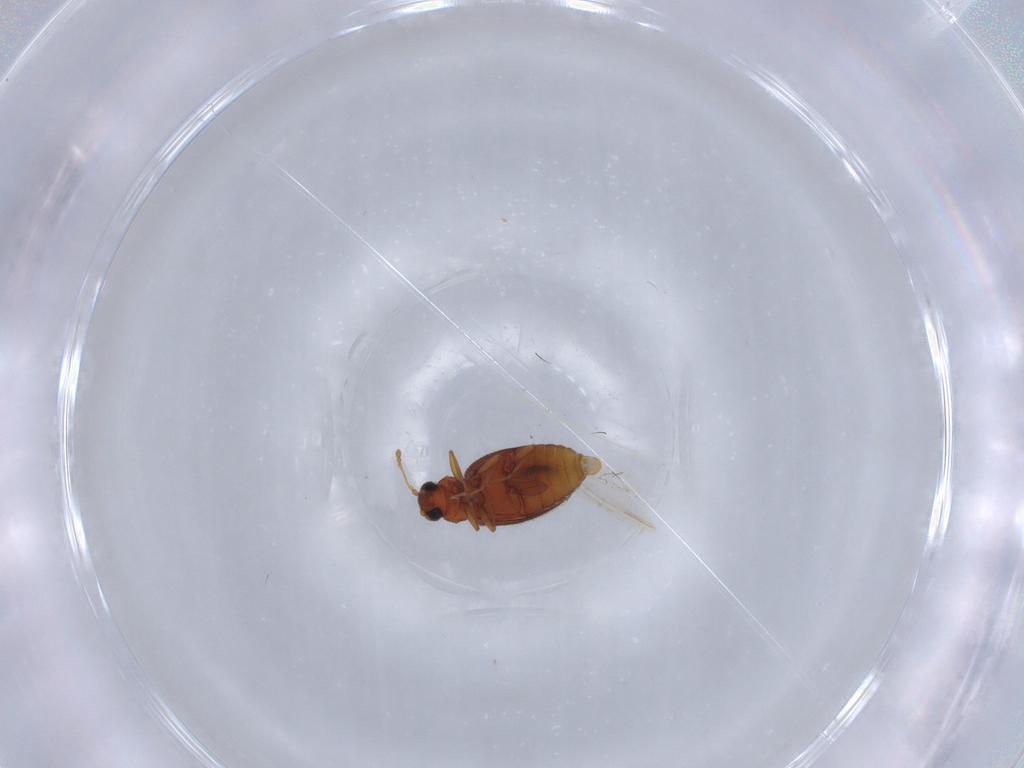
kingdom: Animalia
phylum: Arthropoda
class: Insecta
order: Coleoptera
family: Latridiidae
